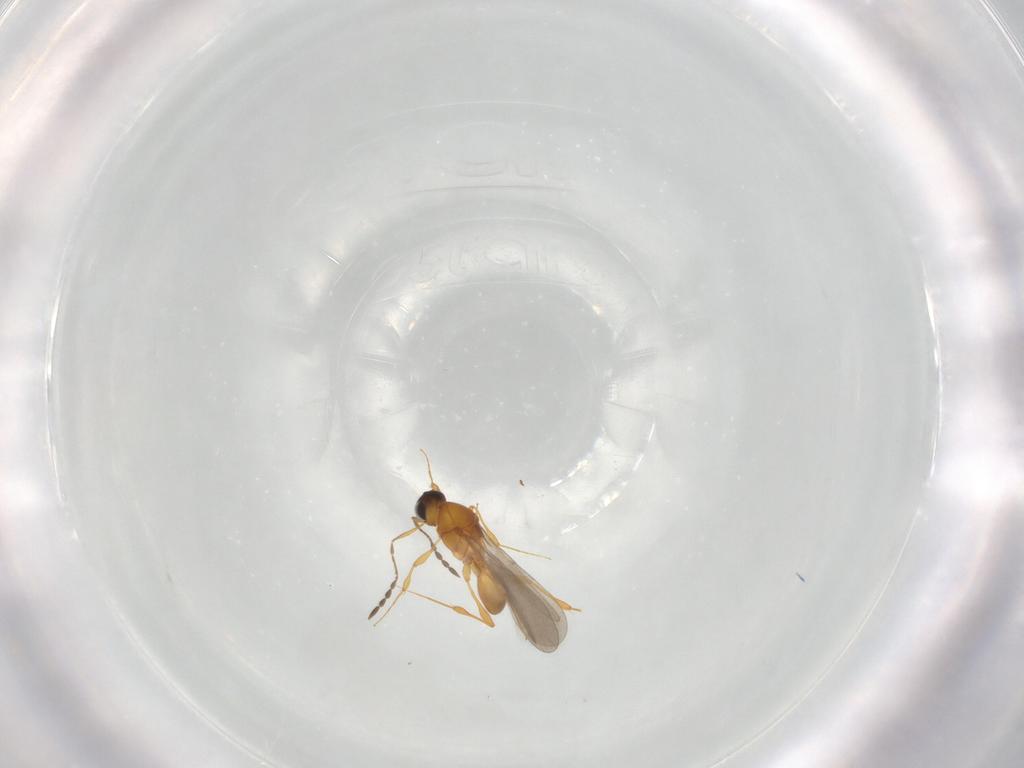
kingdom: Animalia
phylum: Arthropoda
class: Insecta
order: Hymenoptera
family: Platygastridae
